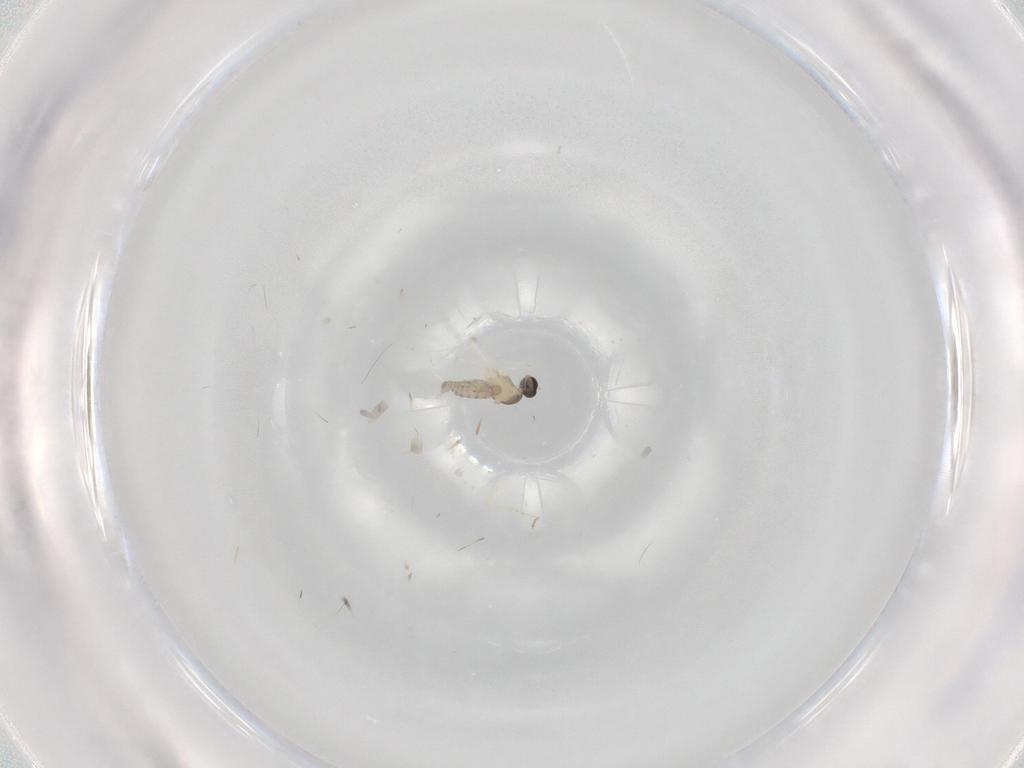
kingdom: Animalia
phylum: Arthropoda
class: Insecta
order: Diptera
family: Cecidomyiidae
